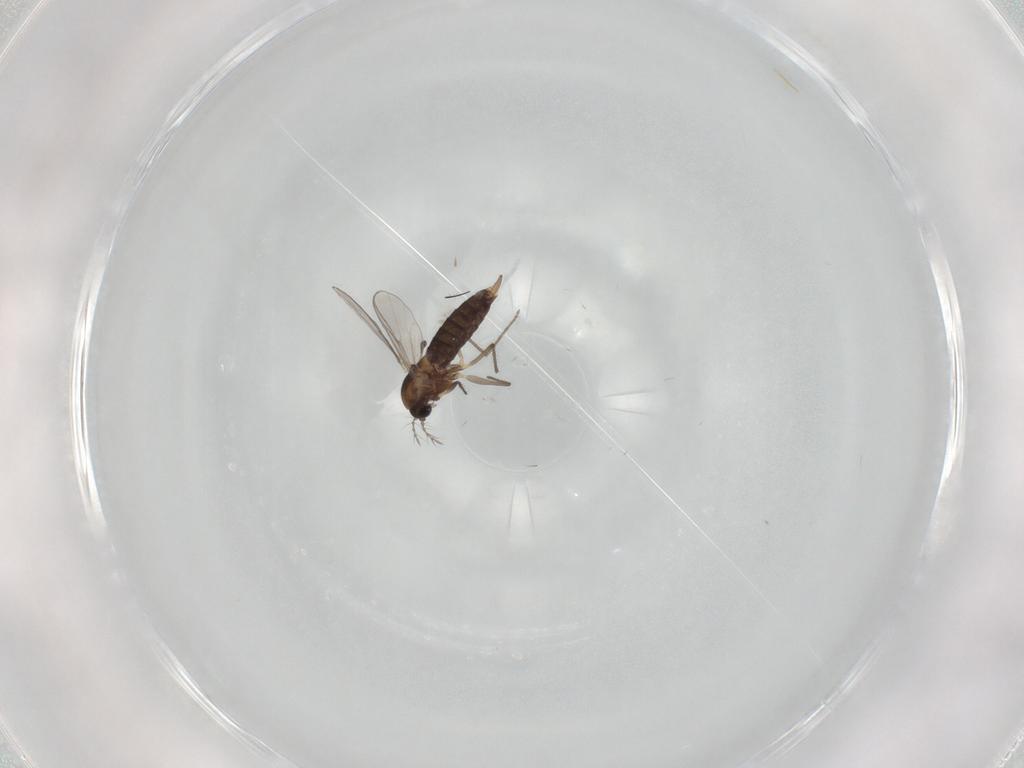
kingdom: Animalia
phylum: Arthropoda
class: Insecta
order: Diptera
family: Chironomidae
